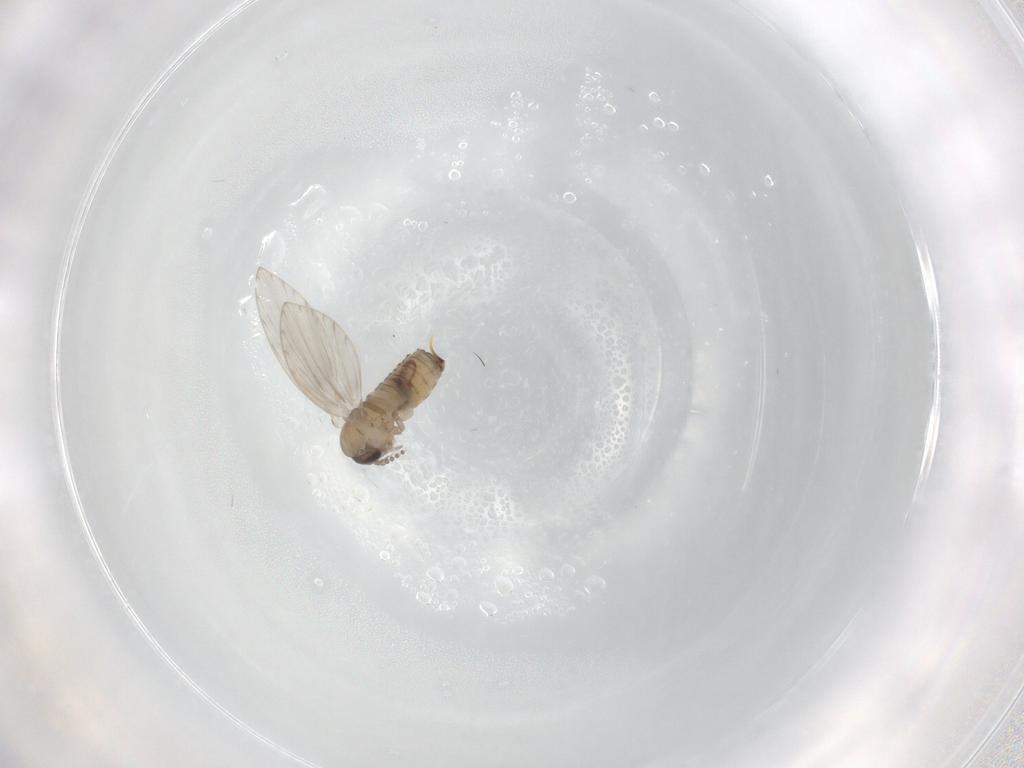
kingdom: Animalia
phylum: Arthropoda
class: Insecta
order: Diptera
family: Psychodidae
